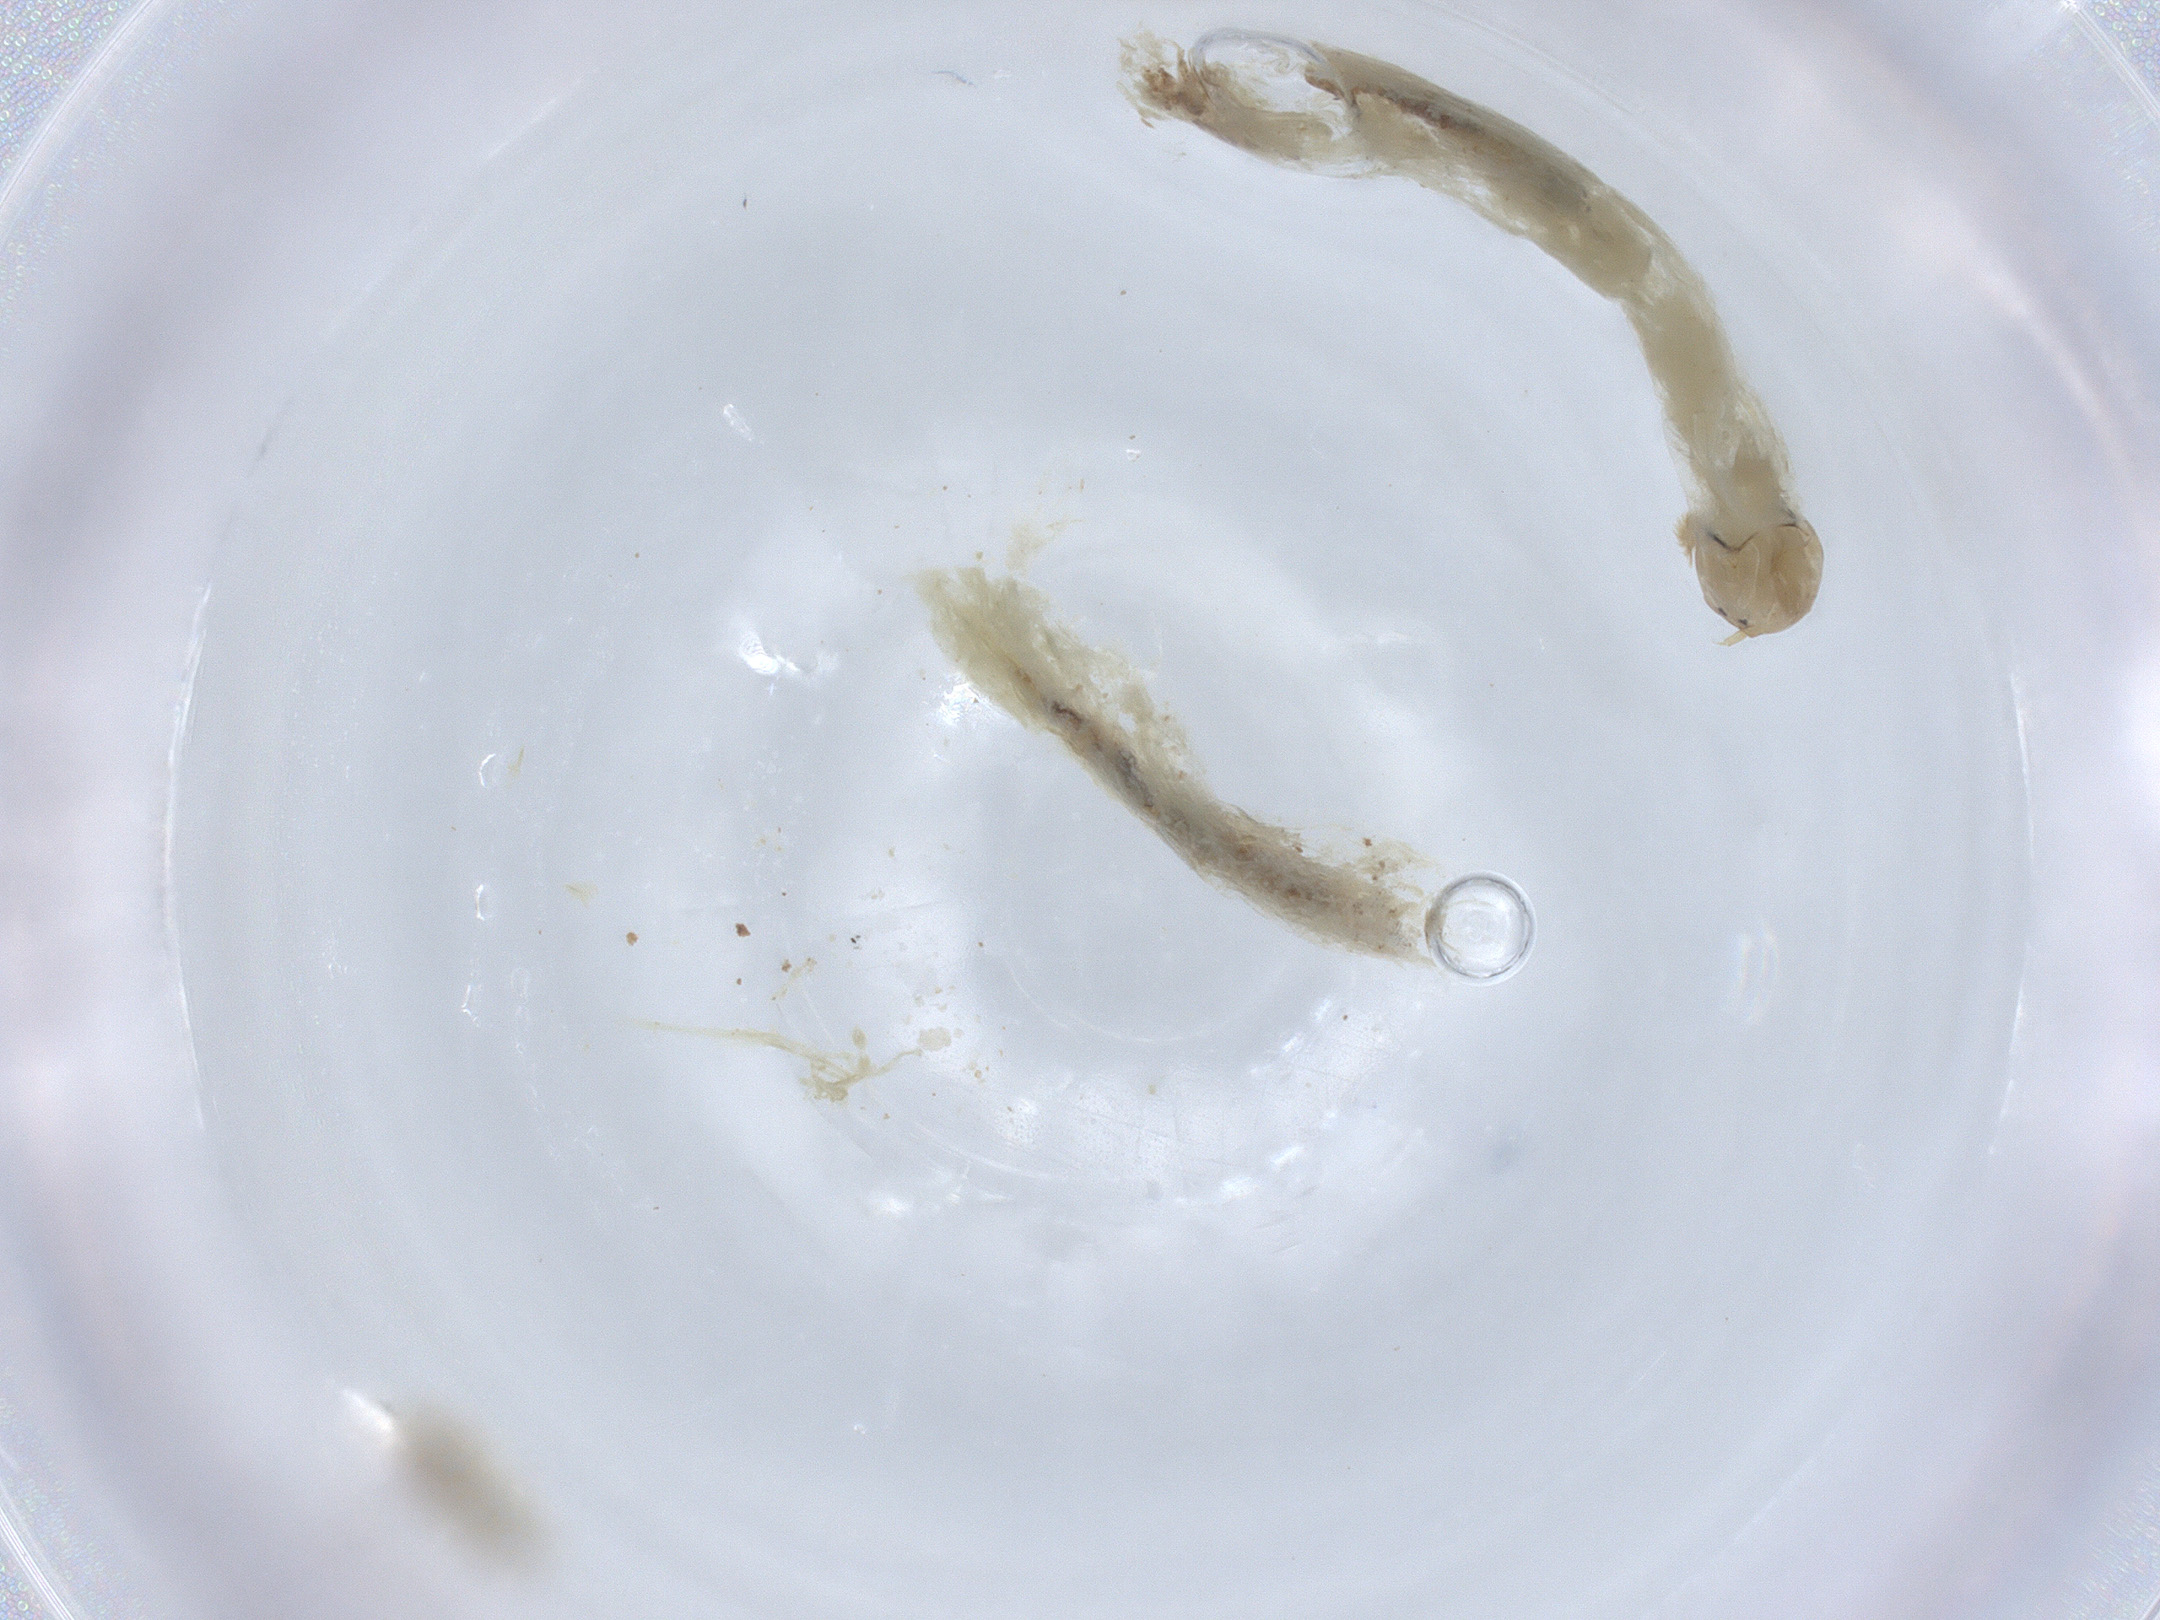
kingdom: Animalia
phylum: Arthropoda
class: Insecta
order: Diptera
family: Chironomidae
